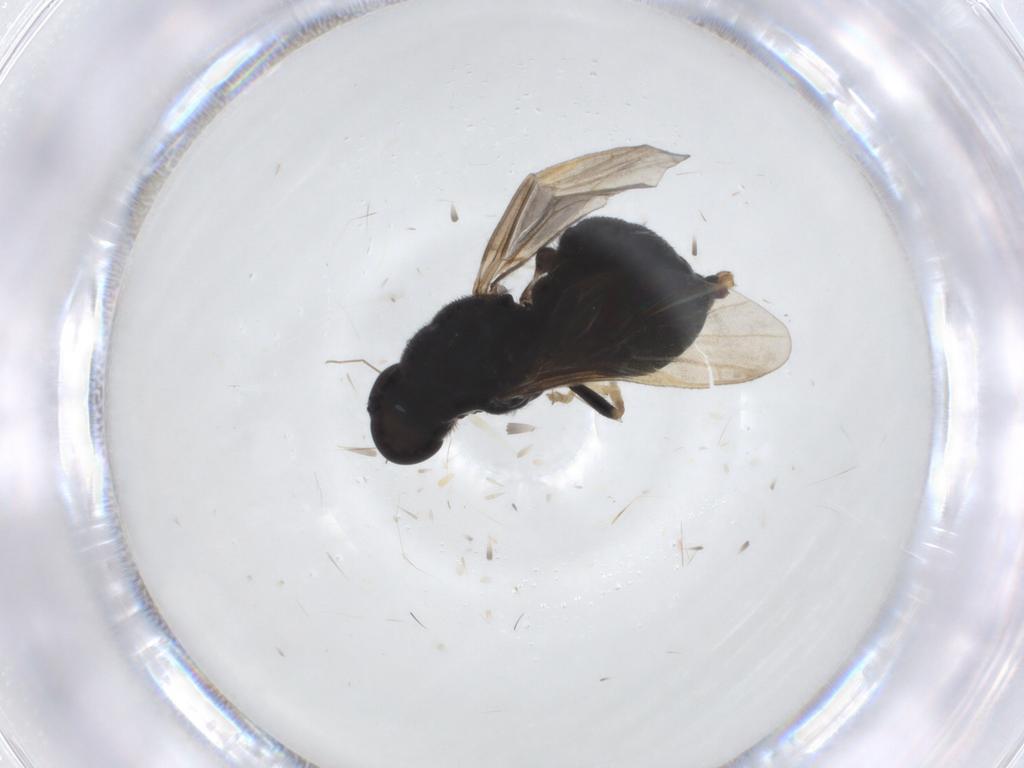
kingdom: Animalia
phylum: Arthropoda
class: Insecta
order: Diptera
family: Stratiomyidae
